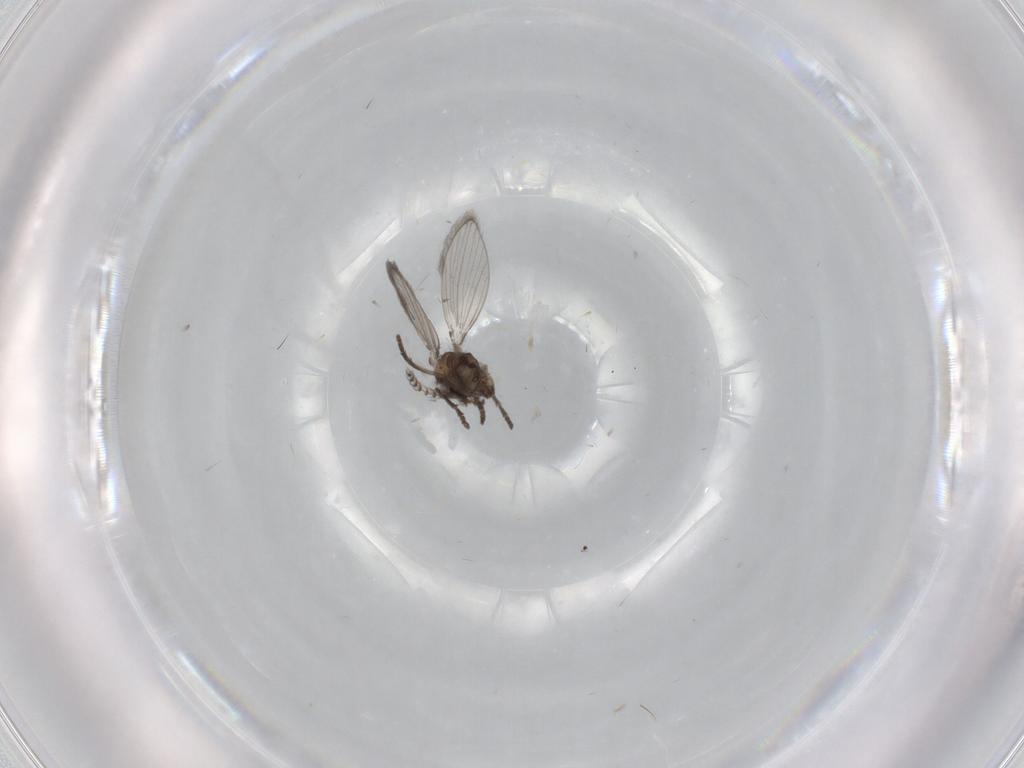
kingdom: Animalia
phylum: Arthropoda
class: Insecta
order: Diptera
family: Psychodidae
